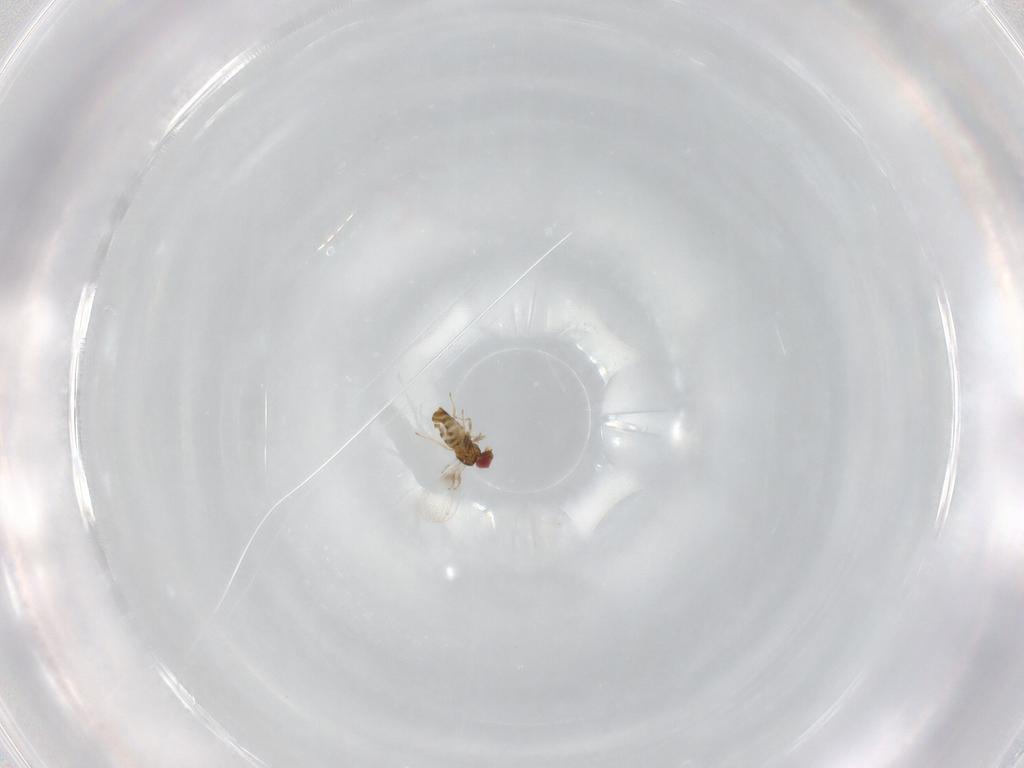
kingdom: Animalia
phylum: Arthropoda
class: Insecta
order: Hymenoptera
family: Trichogrammatidae
